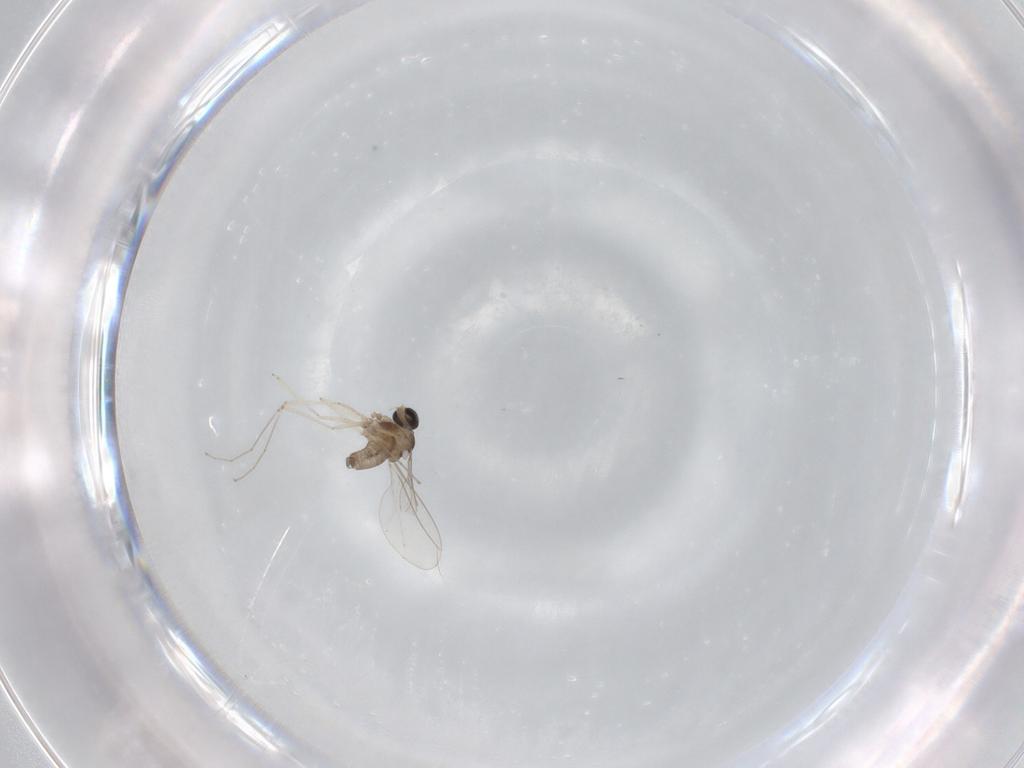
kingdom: Animalia
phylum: Arthropoda
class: Insecta
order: Diptera
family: Cecidomyiidae
